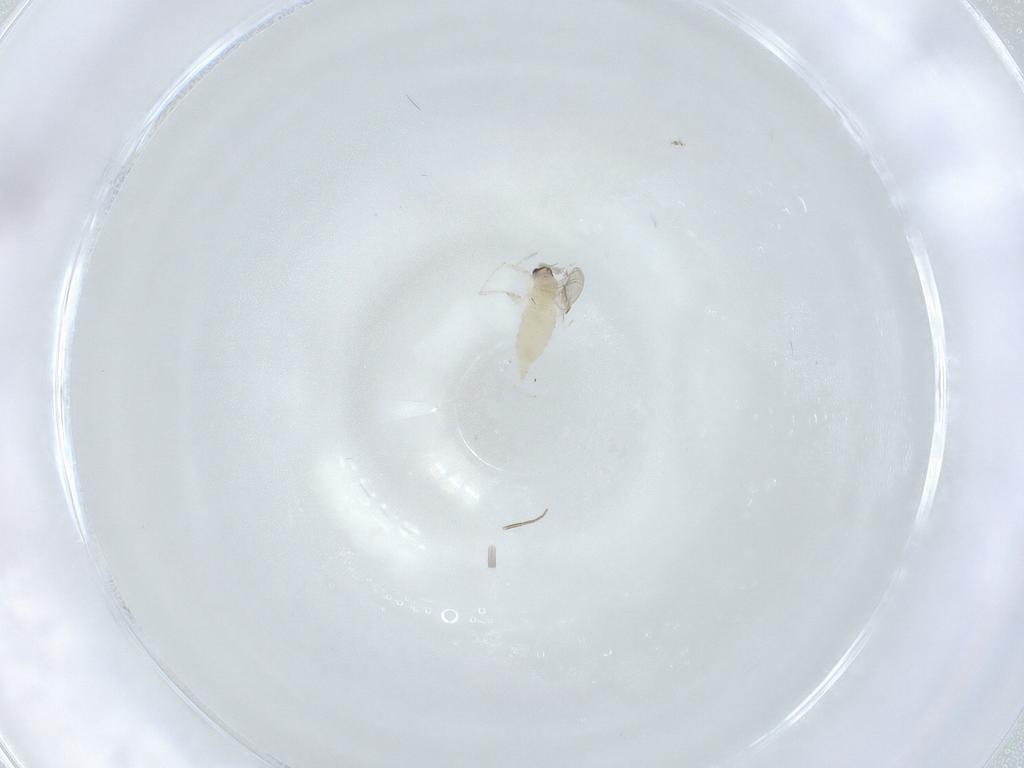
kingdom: Animalia
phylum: Arthropoda
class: Insecta
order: Diptera
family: Cecidomyiidae
